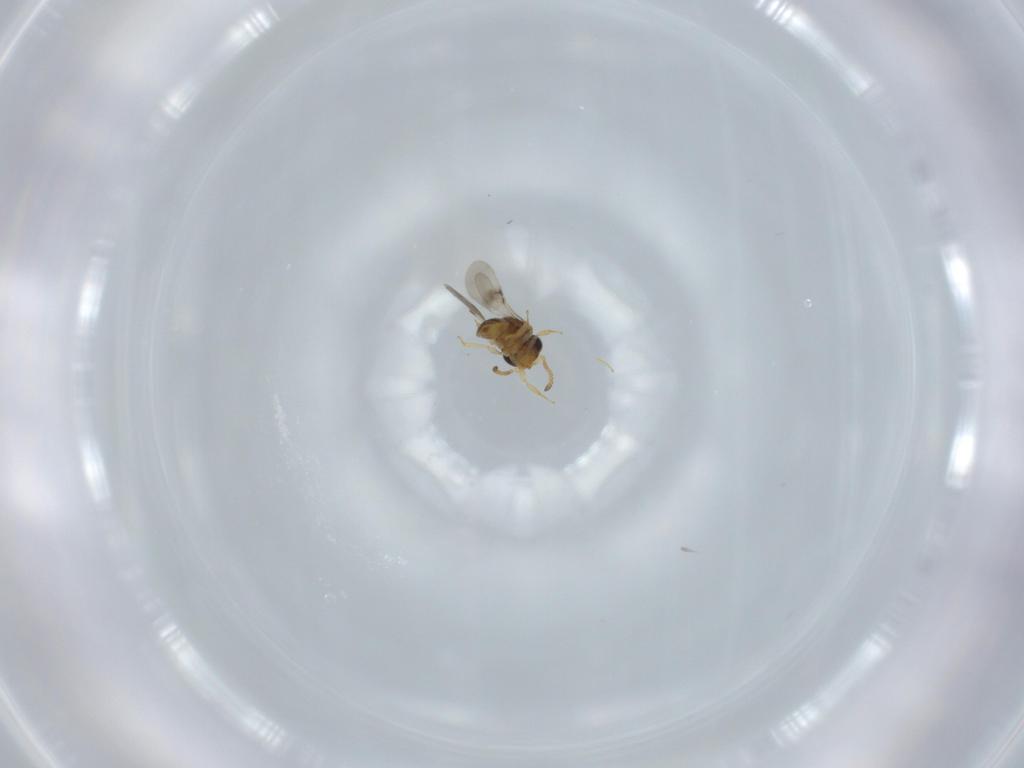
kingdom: Animalia
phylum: Arthropoda
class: Insecta
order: Hymenoptera
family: Scelionidae
